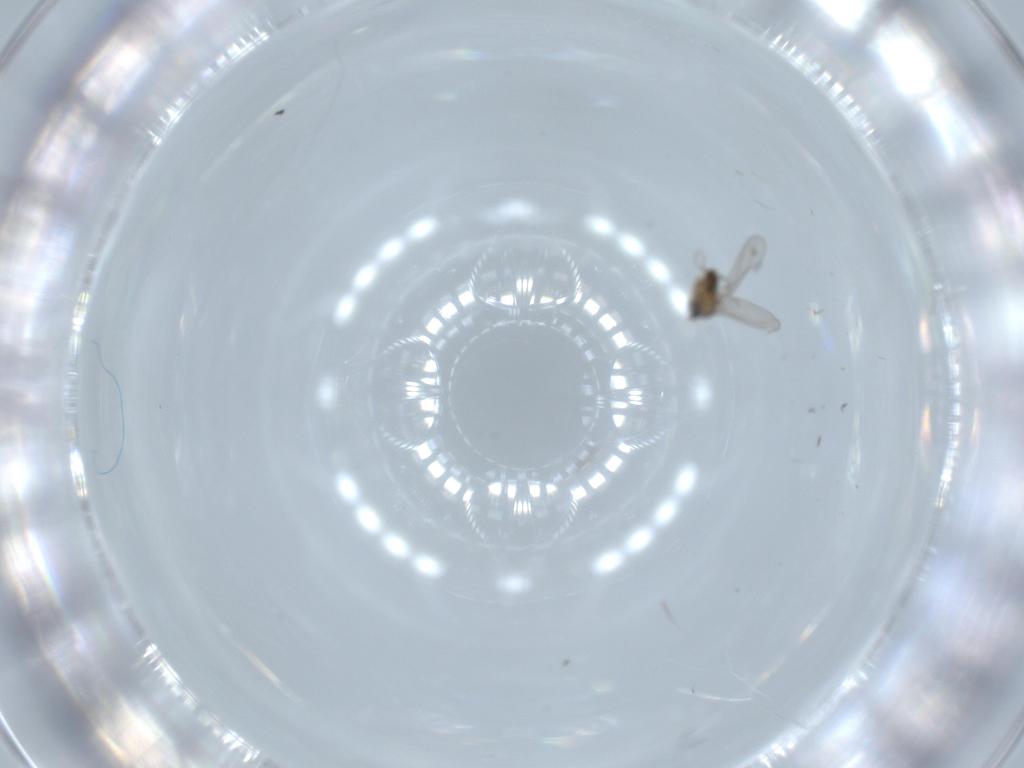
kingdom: Animalia
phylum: Arthropoda
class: Insecta
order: Diptera
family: Cecidomyiidae
